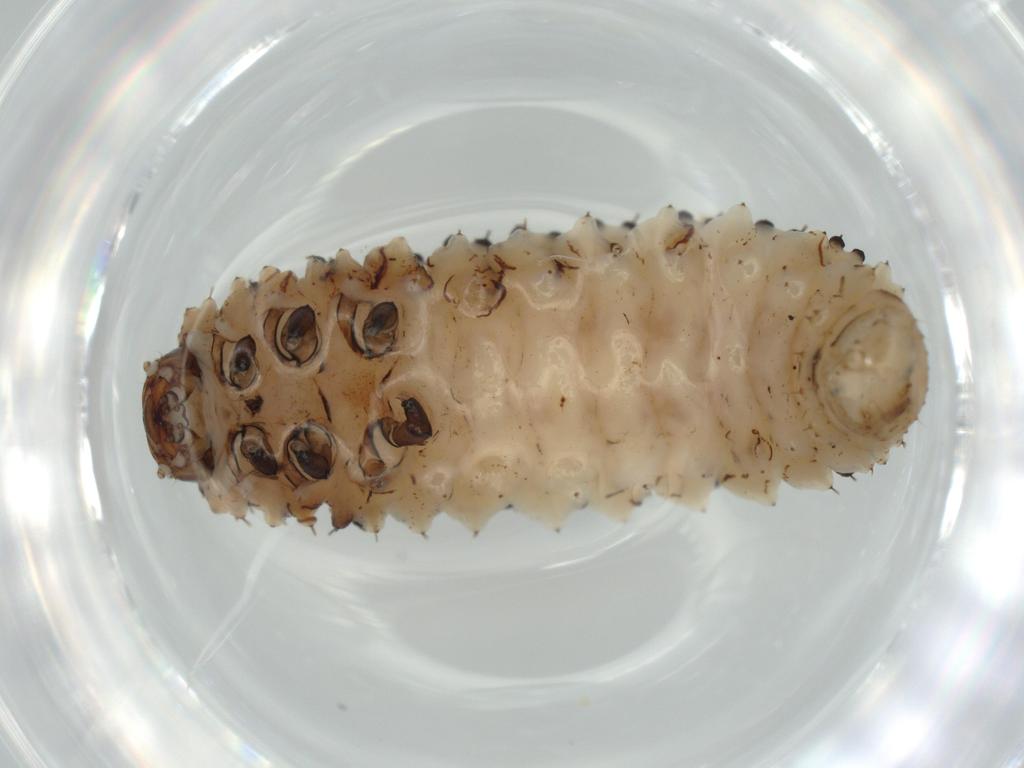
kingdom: Animalia
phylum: Arthropoda
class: Insecta
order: Coleoptera
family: Chrysomelidae
